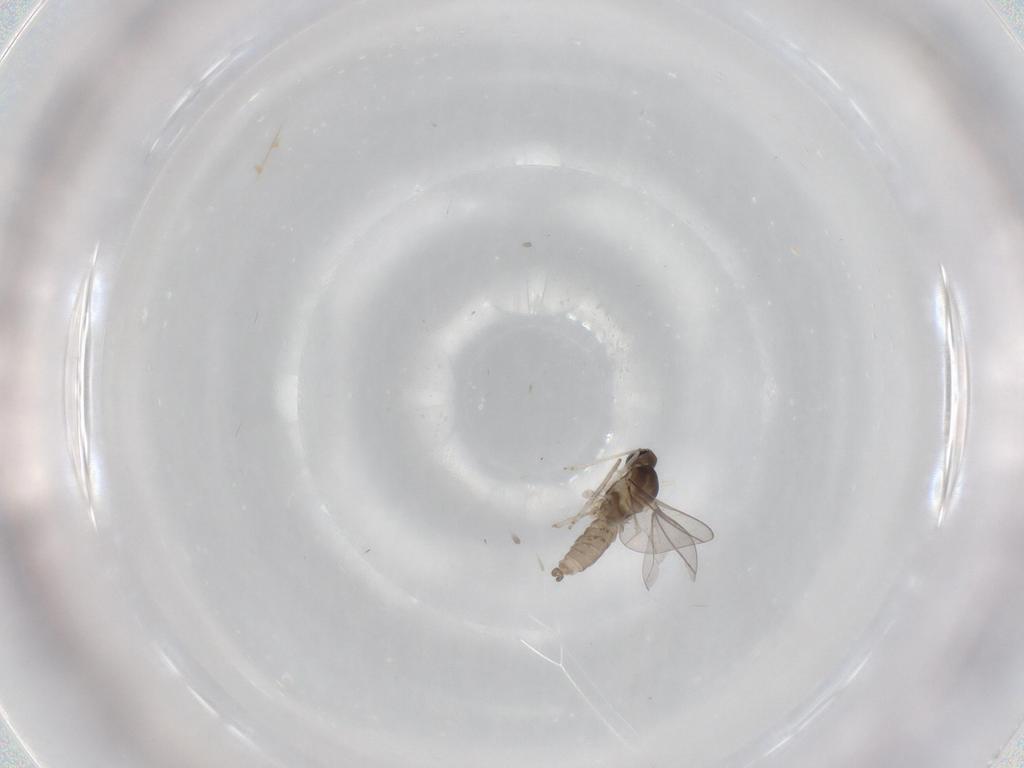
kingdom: Animalia
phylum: Arthropoda
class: Insecta
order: Diptera
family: Cecidomyiidae
